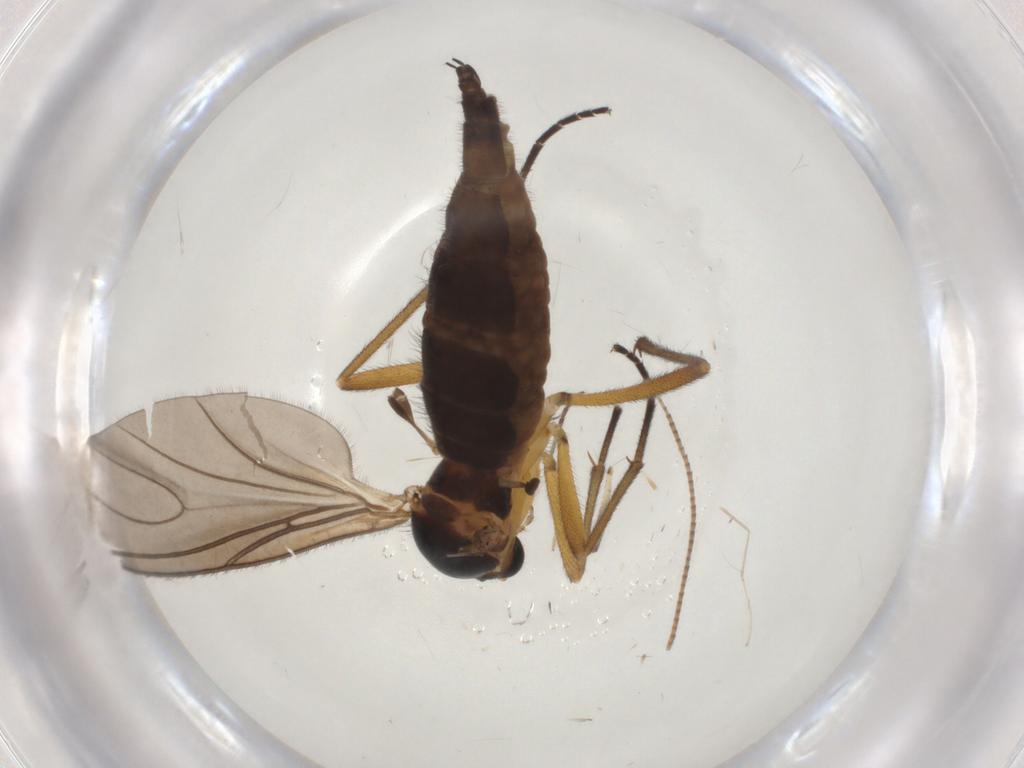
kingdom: Animalia
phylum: Arthropoda
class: Insecta
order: Diptera
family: Sciaridae
